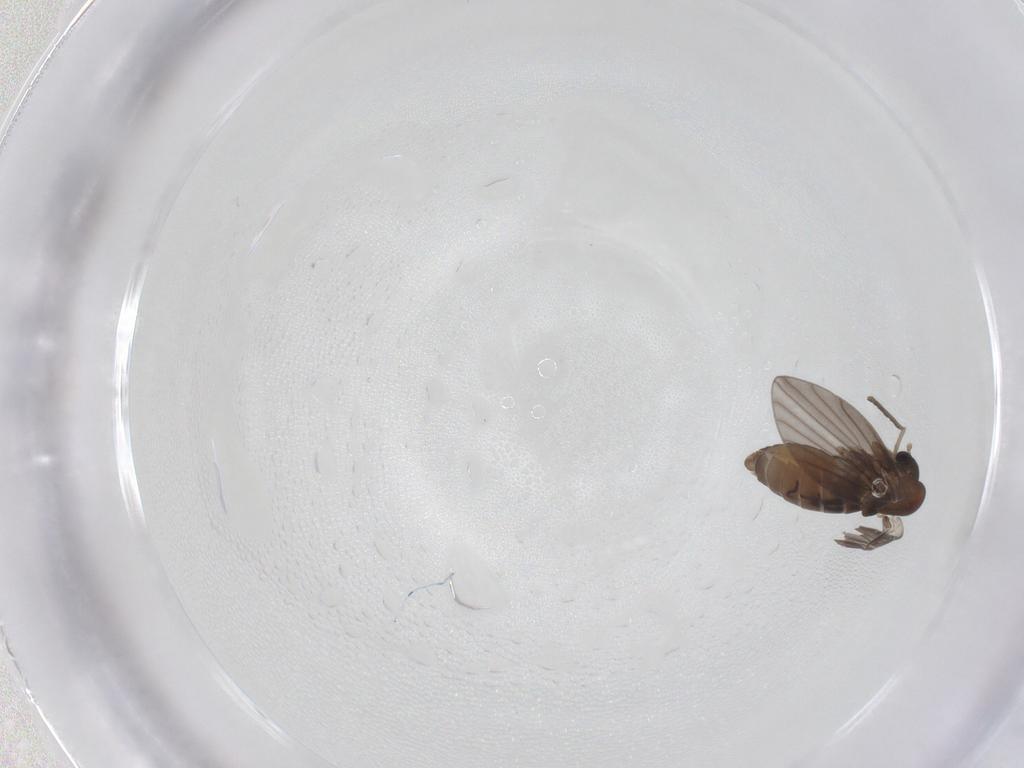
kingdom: Animalia
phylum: Arthropoda
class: Insecta
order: Diptera
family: Psychodidae
